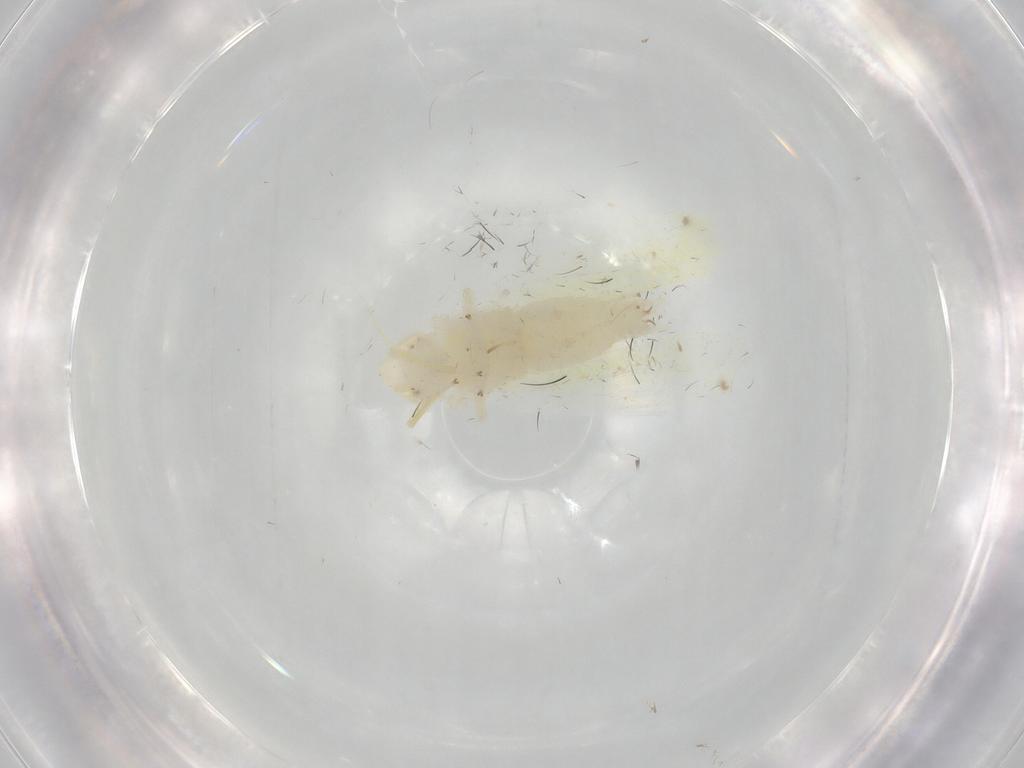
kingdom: Animalia
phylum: Arthropoda
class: Insecta
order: Hemiptera
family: Cicadellidae
